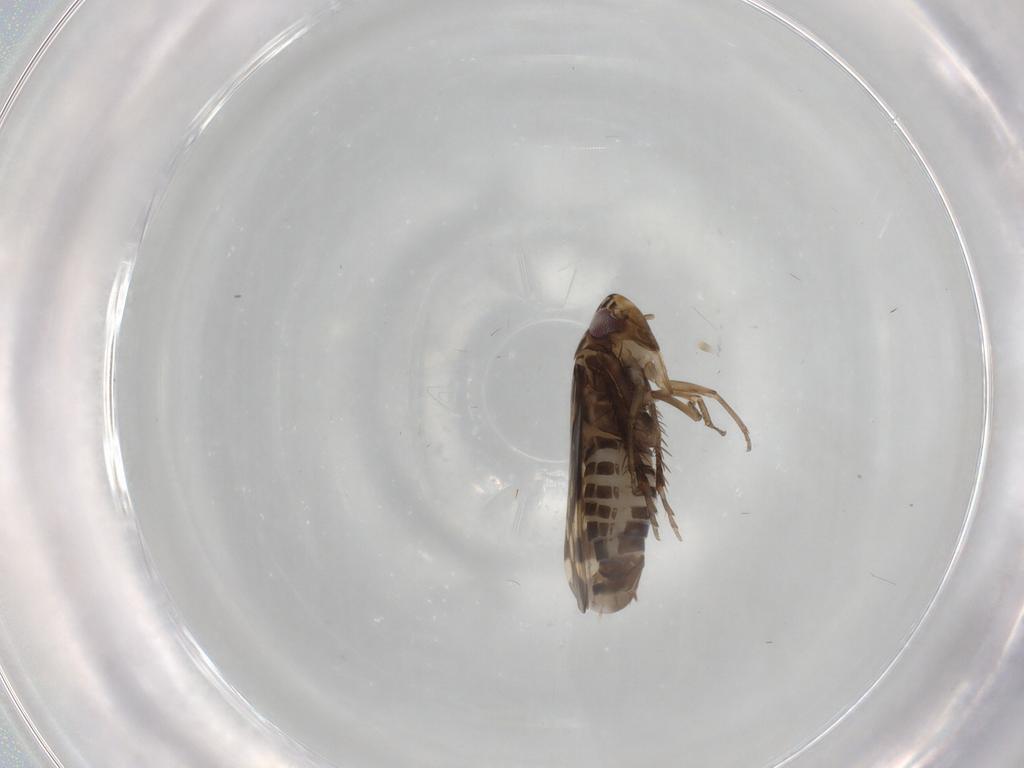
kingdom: Animalia
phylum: Arthropoda
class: Insecta
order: Hemiptera
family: Cicadellidae
